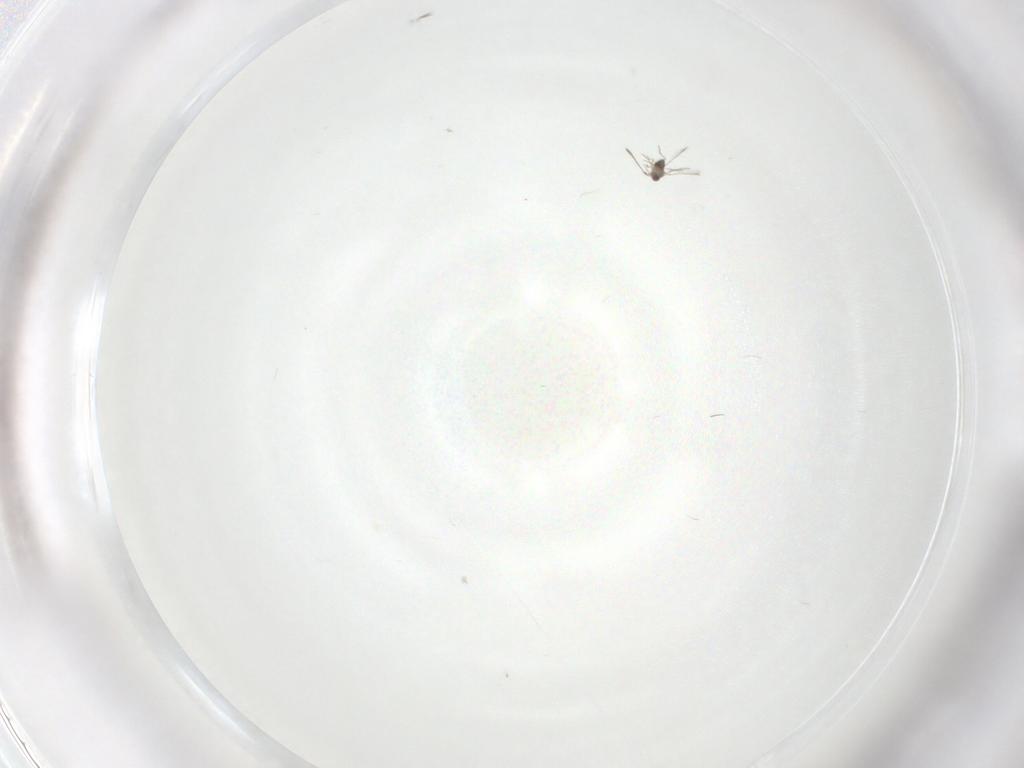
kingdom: Animalia
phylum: Arthropoda
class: Insecta
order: Hymenoptera
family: Mymaridae
